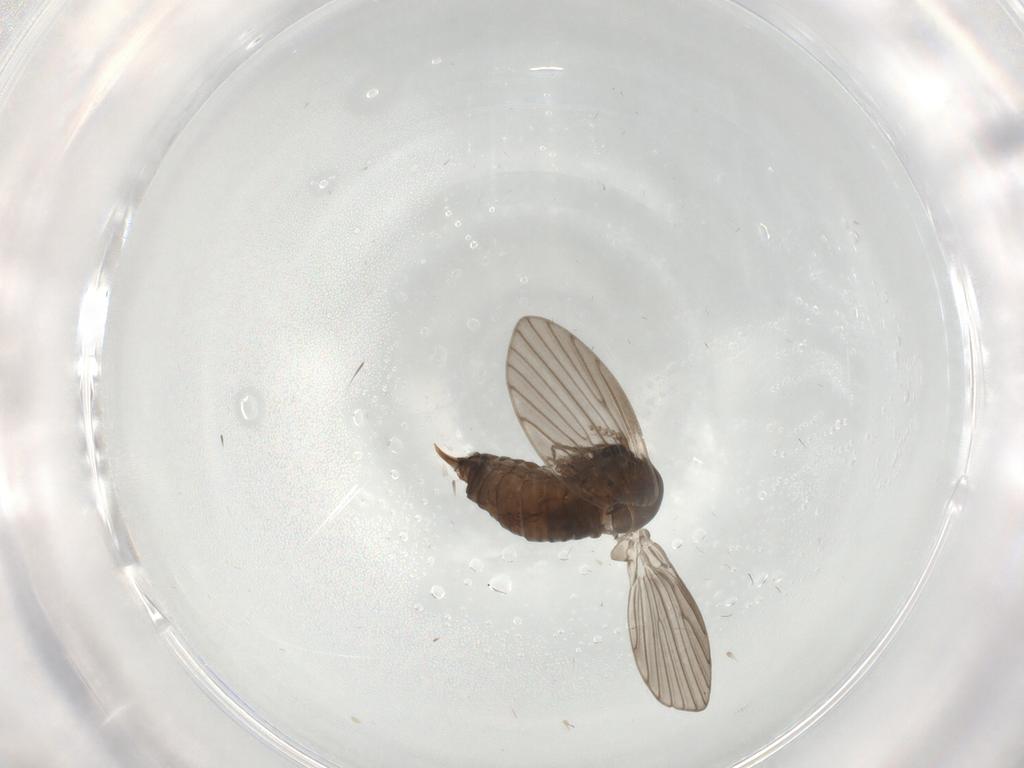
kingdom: Animalia
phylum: Arthropoda
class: Insecta
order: Diptera
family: Psychodidae
